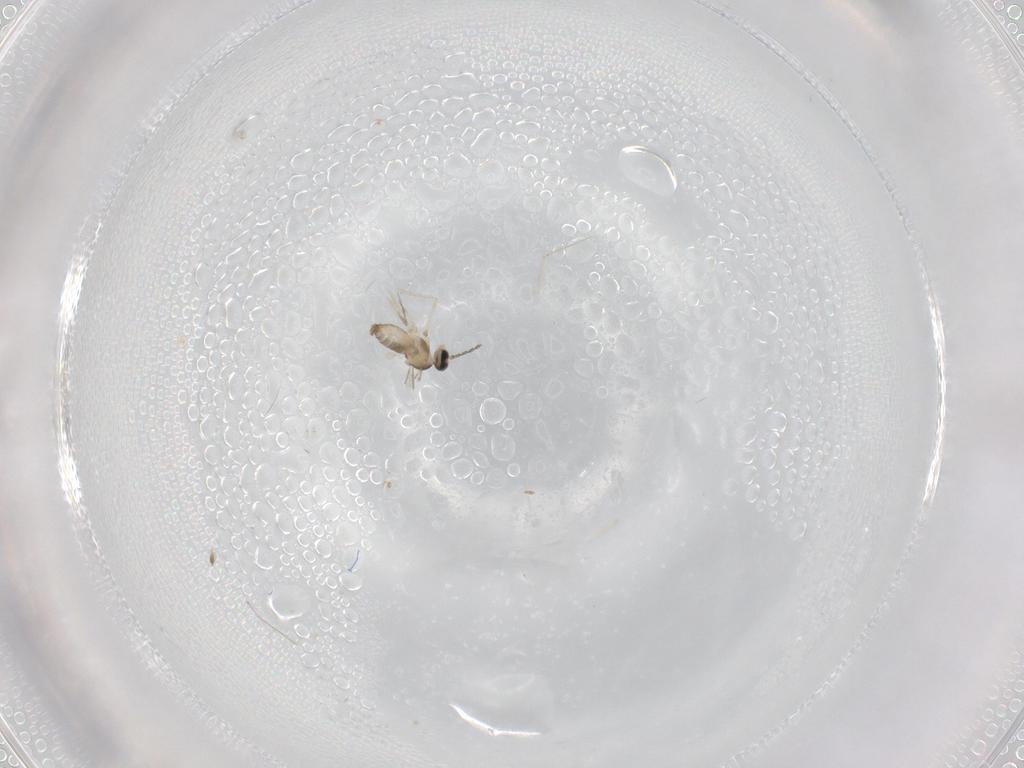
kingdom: Animalia
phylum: Arthropoda
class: Insecta
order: Diptera
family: Cecidomyiidae
